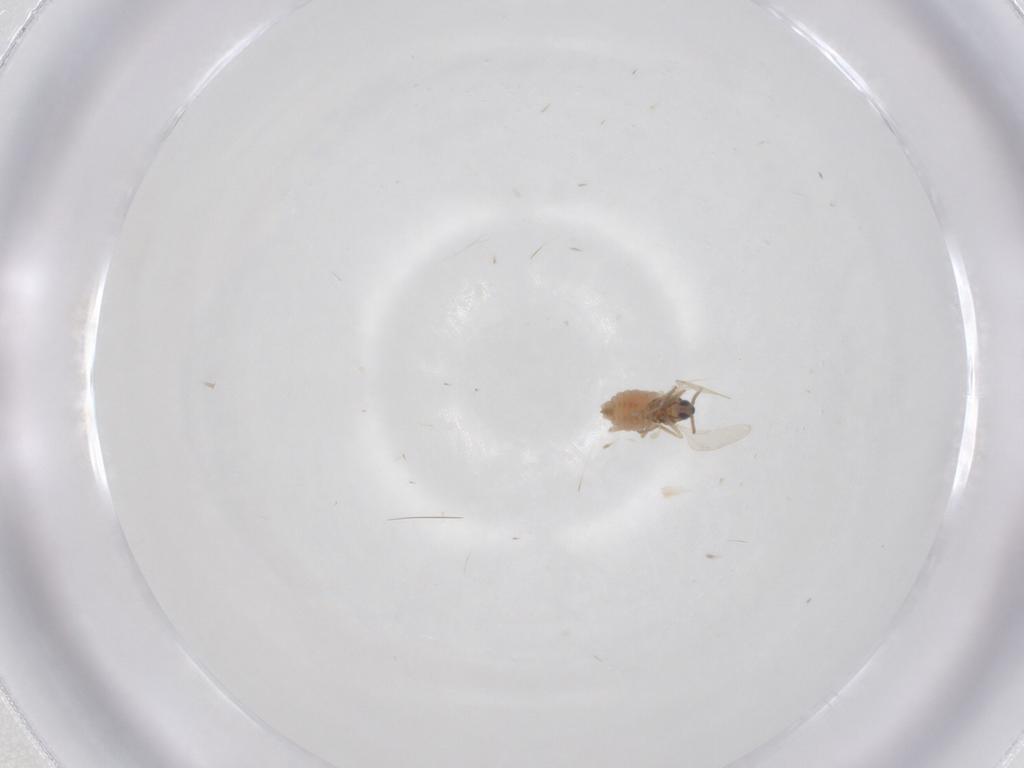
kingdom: Animalia
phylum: Arthropoda
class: Insecta
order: Diptera
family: Cecidomyiidae
